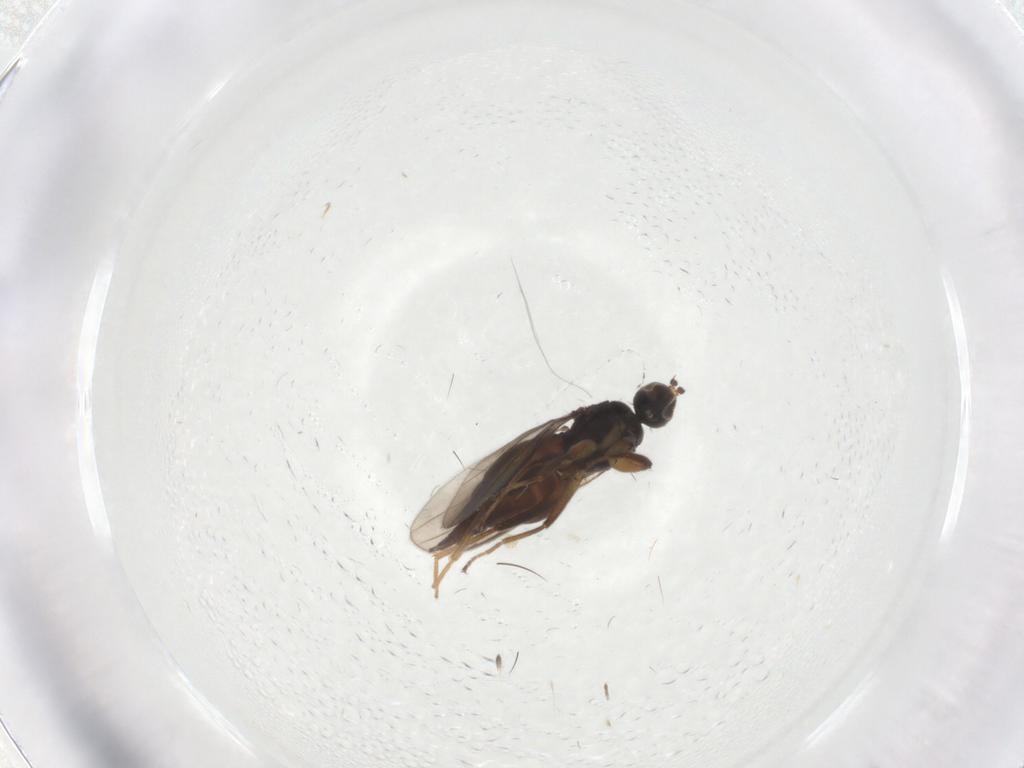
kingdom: Animalia
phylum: Arthropoda
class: Insecta
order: Diptera
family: Hybotidae
